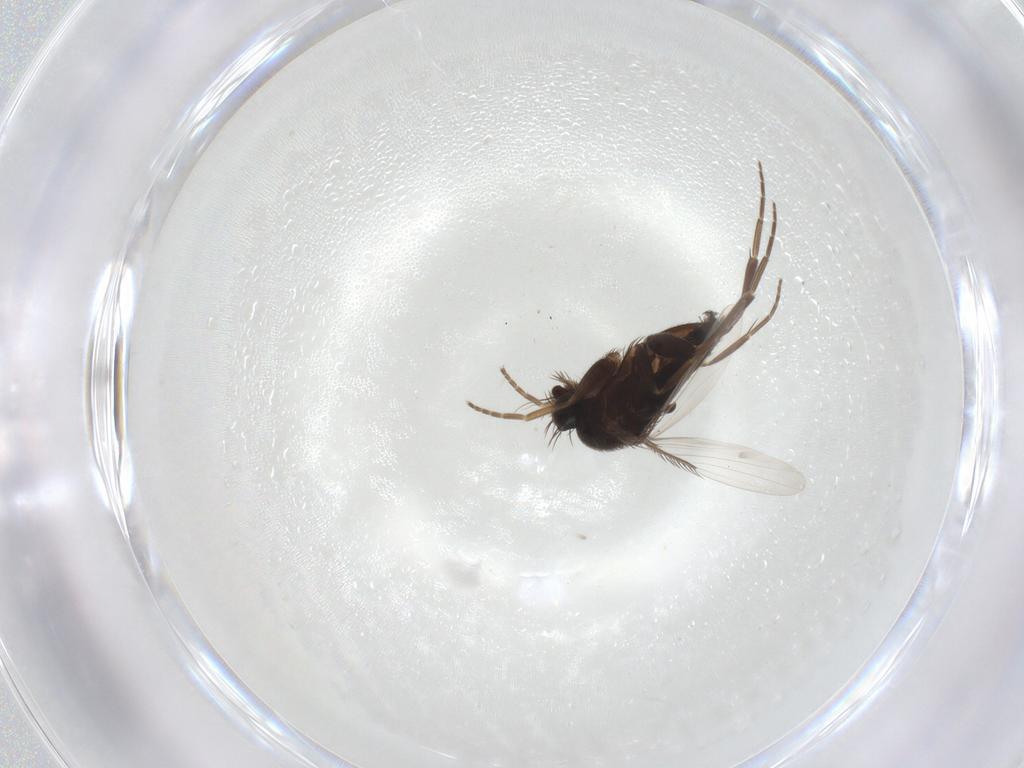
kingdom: Animalia
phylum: Arthropoda
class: Insecta
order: Diptera
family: Phoridae
